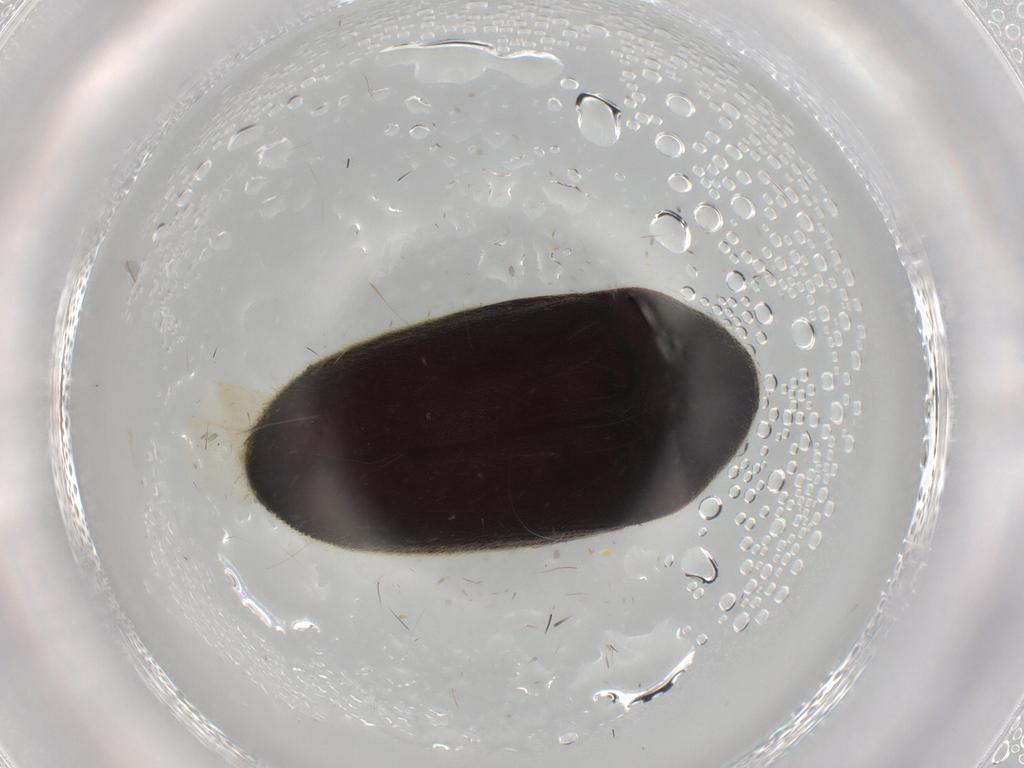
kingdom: Animalia
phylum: Arthropoda
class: Insecta
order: Coleoptera
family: Chrysomelidae
